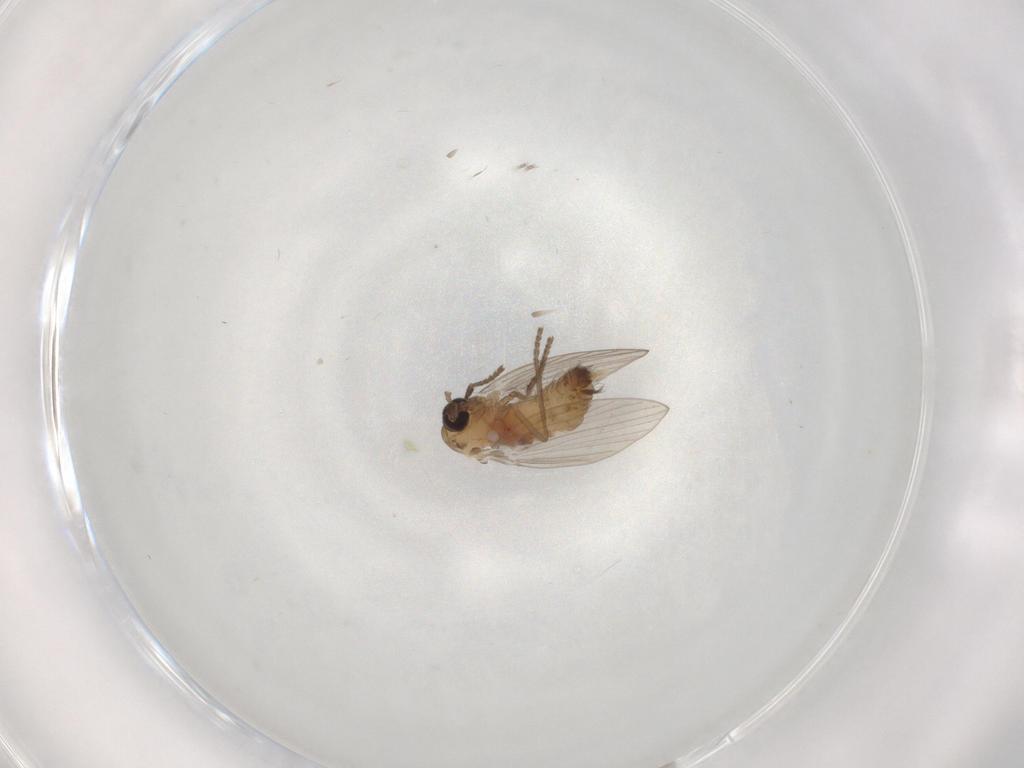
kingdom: Animalia
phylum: Arthropoda
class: Insecta
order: Diptera
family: Psychodidae
